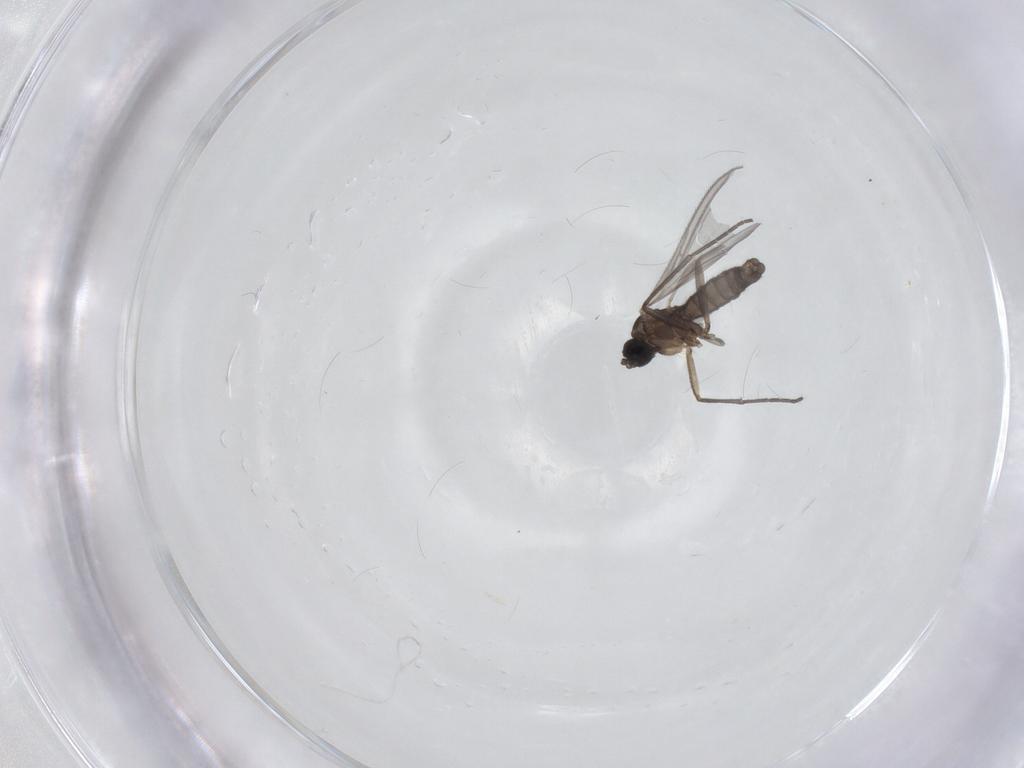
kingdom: Animalia
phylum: Arthropoda
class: Insecta
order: Diptera
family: Sciaridae
